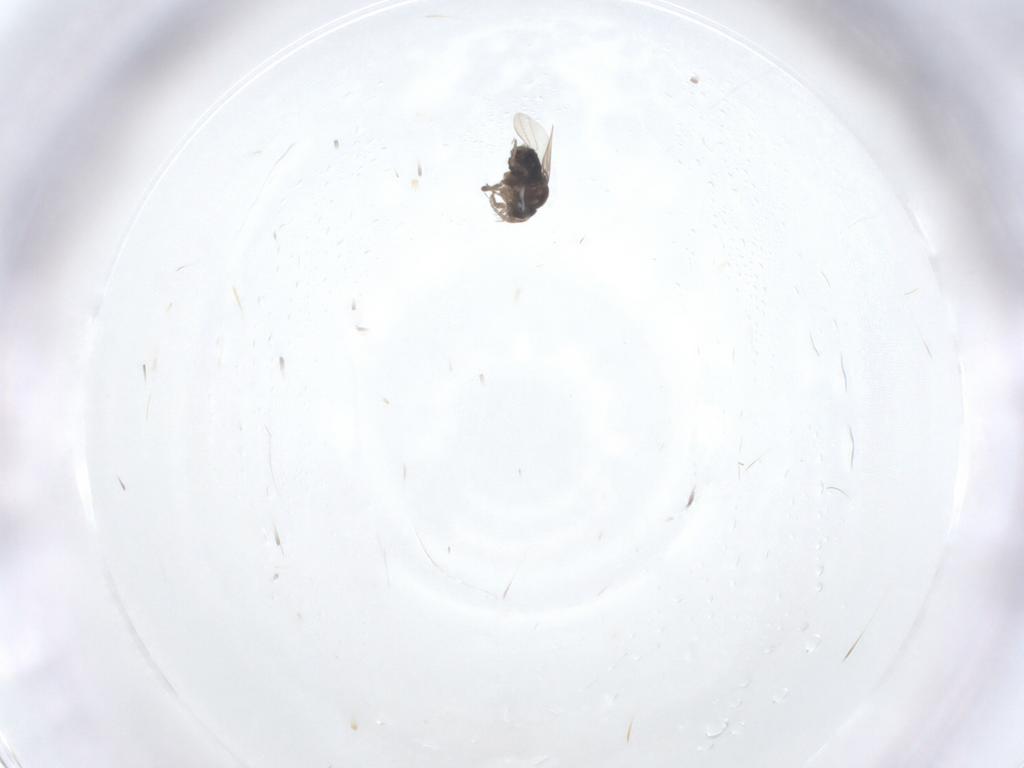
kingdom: Animalia
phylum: Arthropoda
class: Insecta
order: Diptera
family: Phoridae
